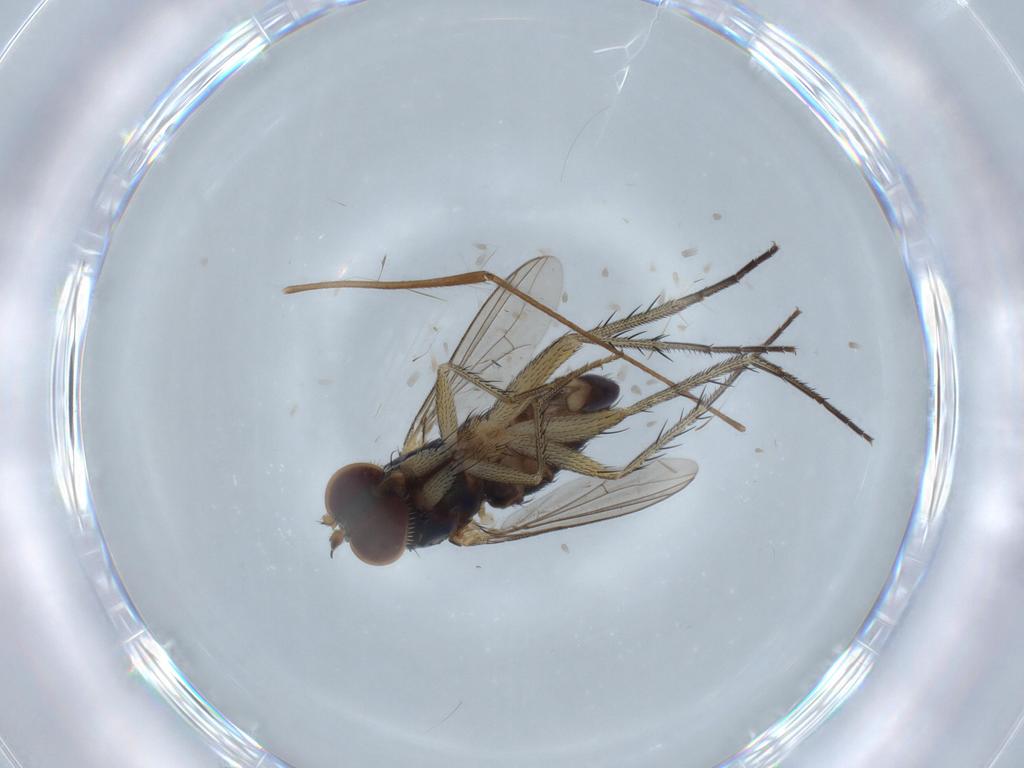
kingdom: Animalia
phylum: Arthropoda
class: Insecta
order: Diptera
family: Dolichopodidae
